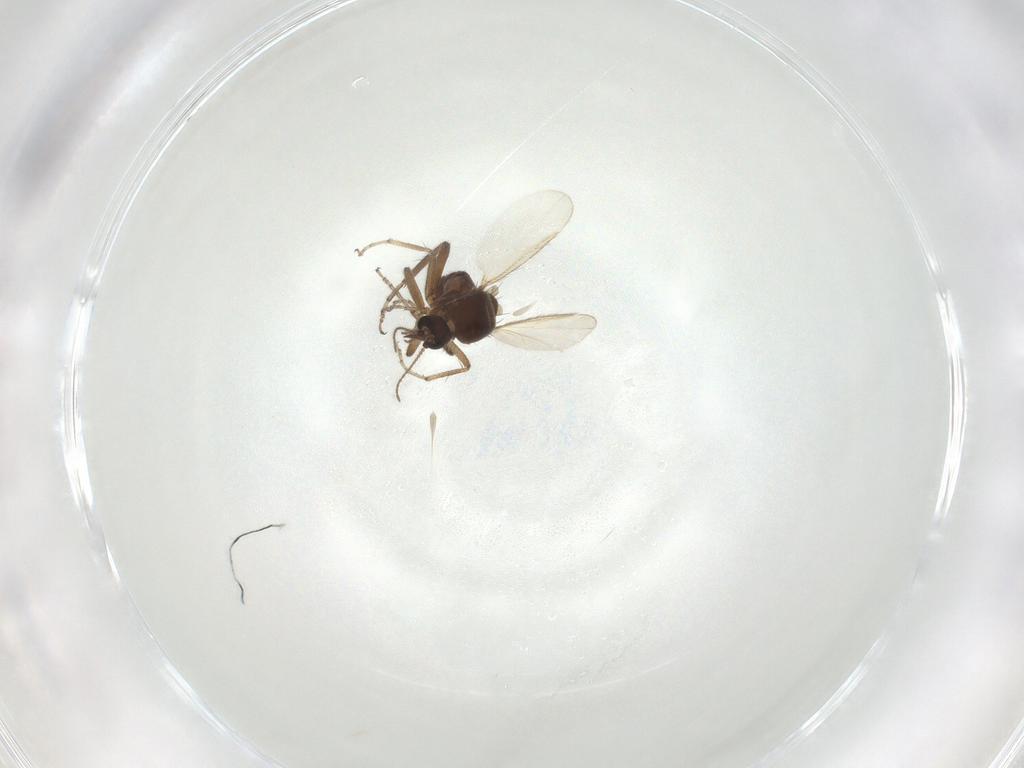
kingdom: Animalia
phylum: Arthropoda
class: Insecta
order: Diptera
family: Ceratopogonidae
